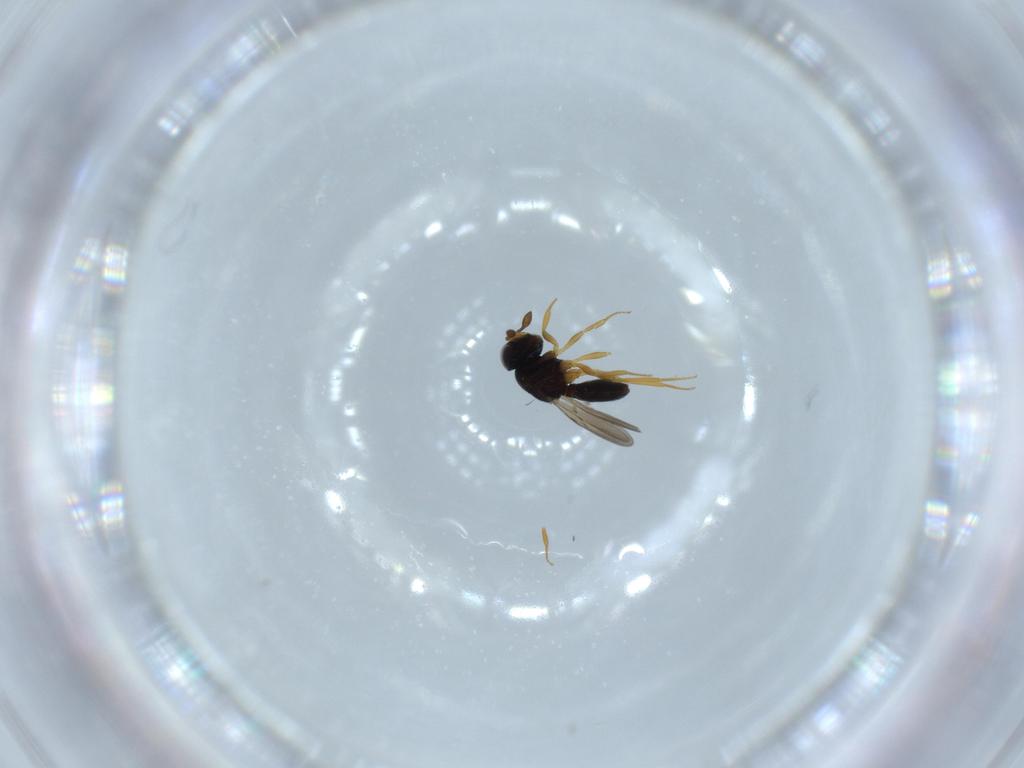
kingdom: Animalia
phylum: Arthropoda
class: Insecta
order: Hymenoptera
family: Scelionidae
